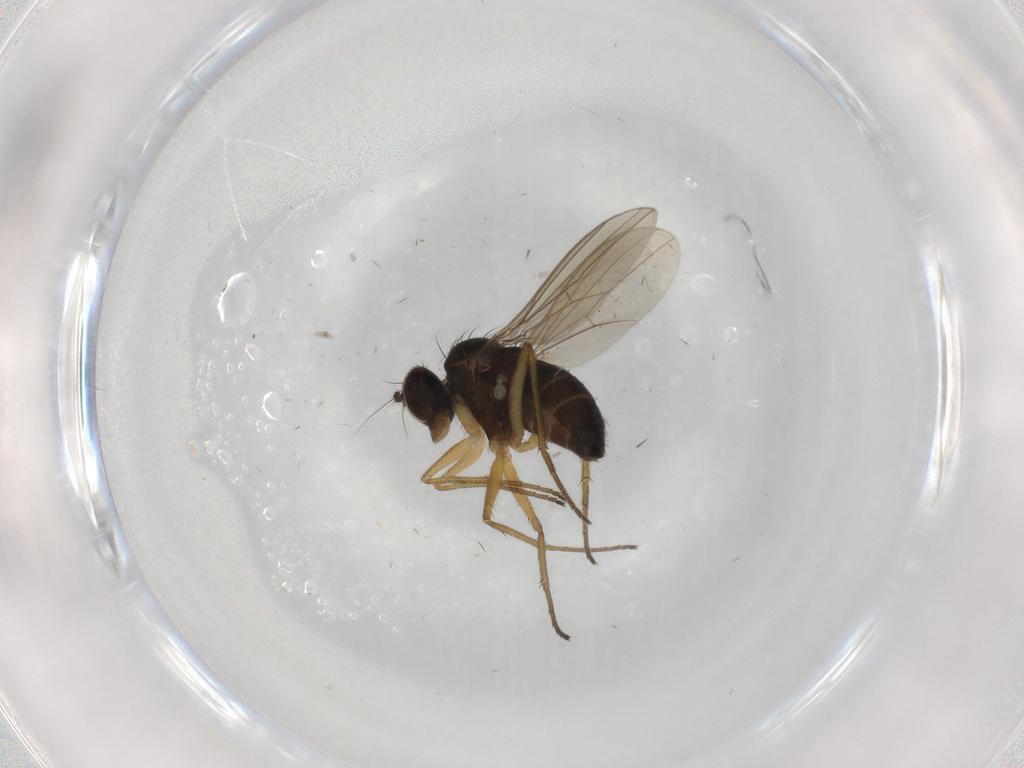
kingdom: Animalia
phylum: Arthropoda
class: Insecta
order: Diptera
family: Dolichopodidae
